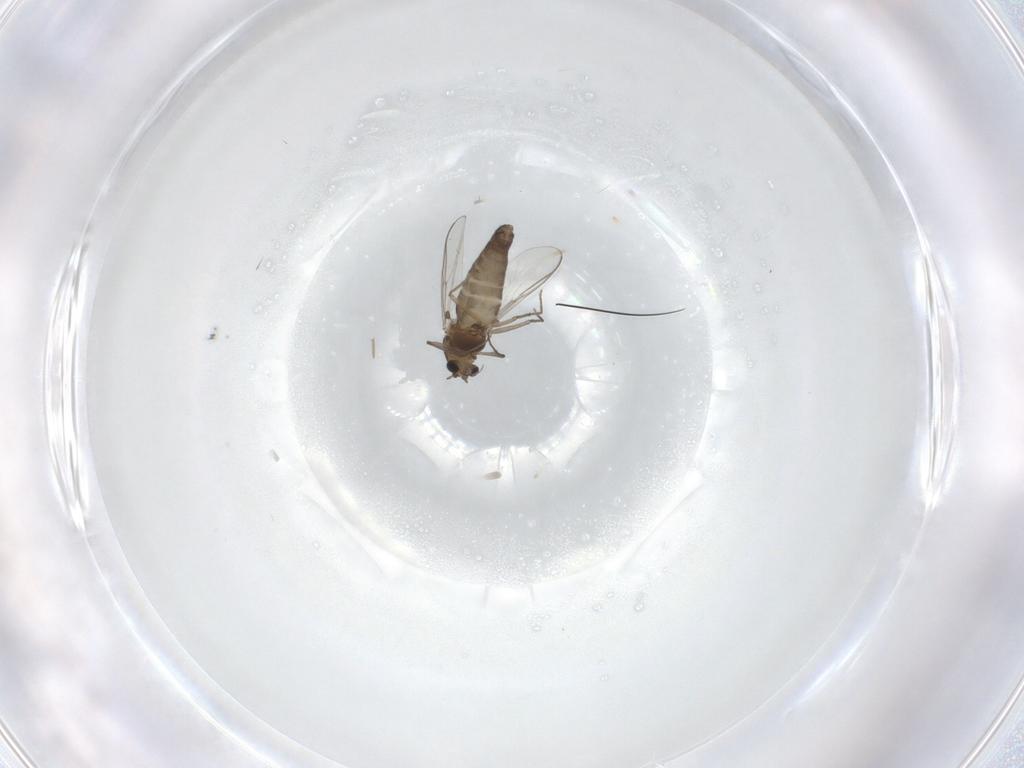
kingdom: Animalia
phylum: Arthropoda
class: Insecta
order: Diptera
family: Chironomidae
